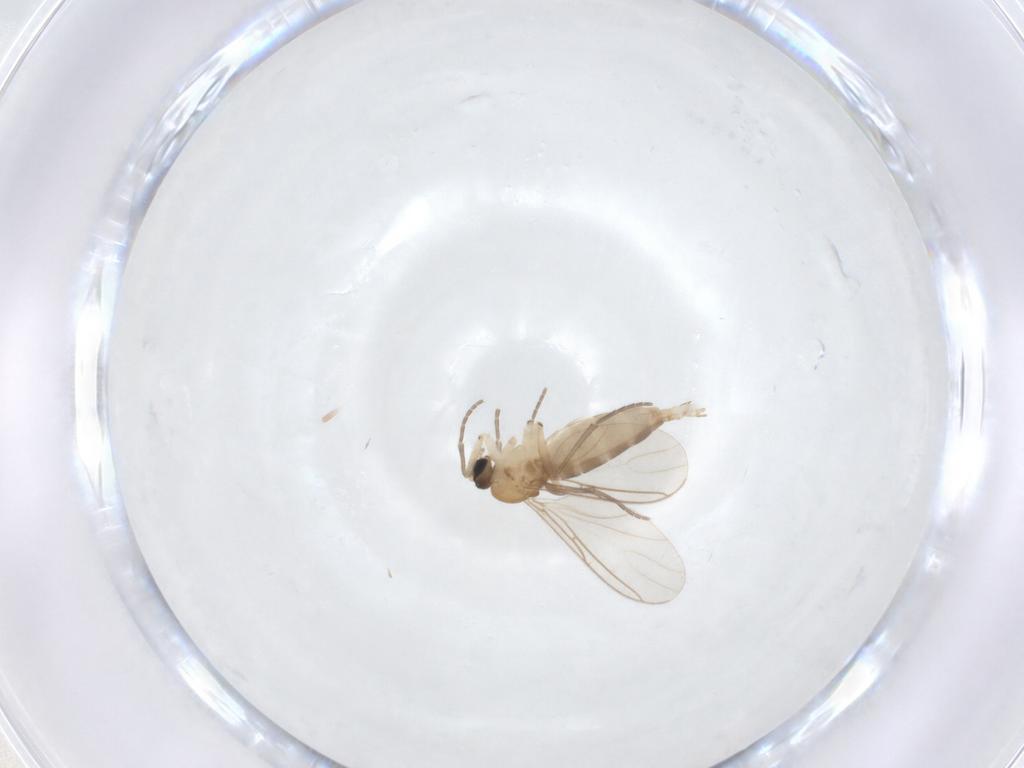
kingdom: Animalia
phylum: Arthropoda
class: Insecta
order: Diptera
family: Sciaridae
